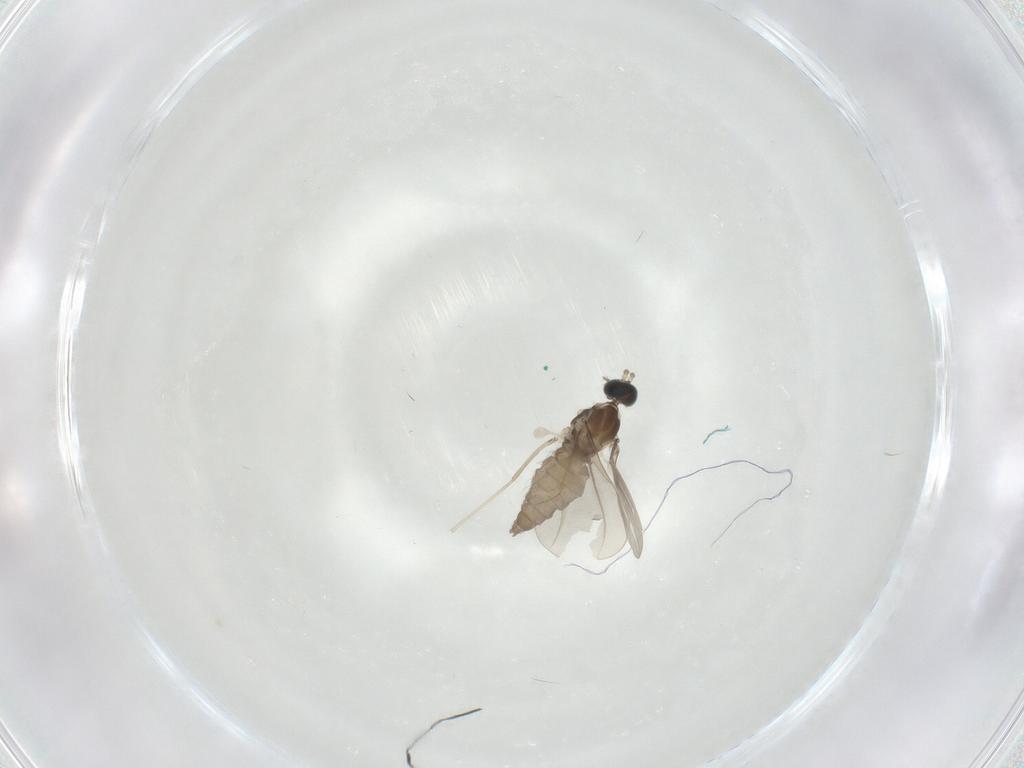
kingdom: Animalia
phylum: Arthropoda
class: Insecta
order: Diptera
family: Cecidomyiidae
